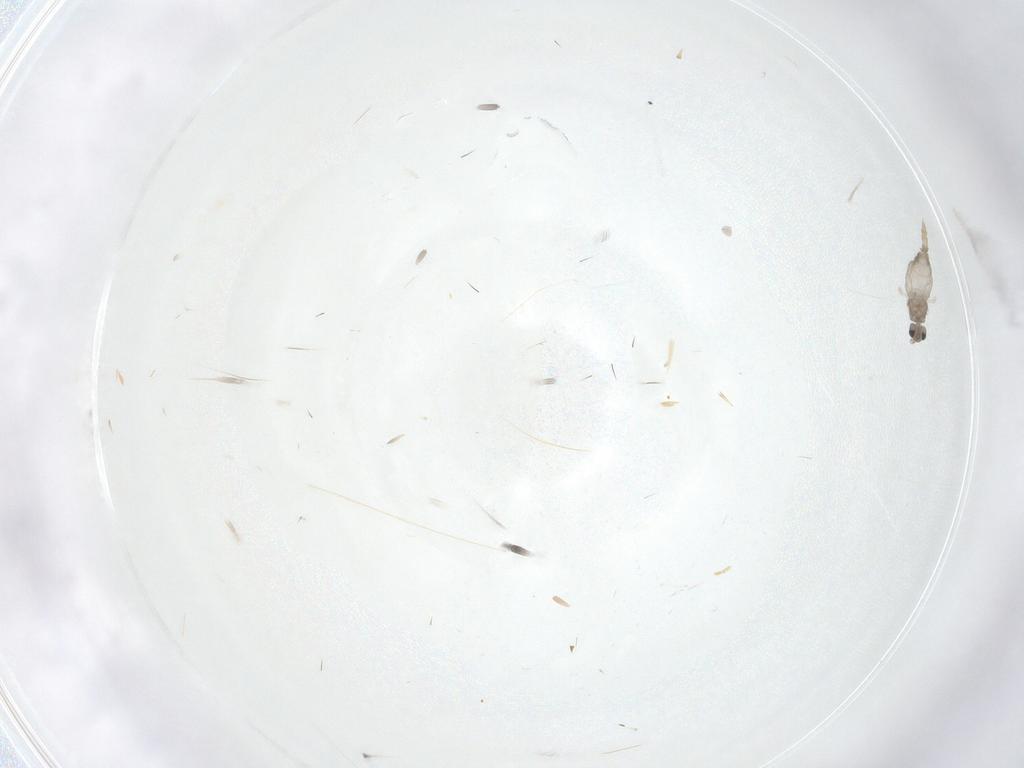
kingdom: Animalia
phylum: Arthropoda
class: Insecta
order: Diptera
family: Cecidomyiidae
